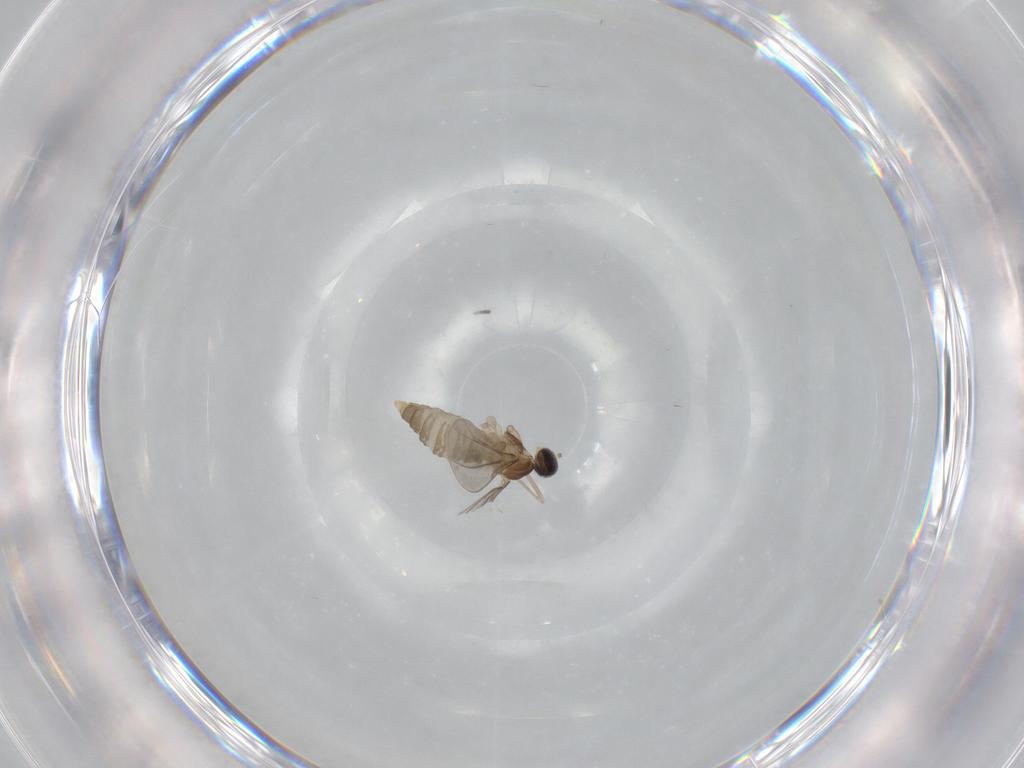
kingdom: Animalia
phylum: Arthropoda
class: Insecta
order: Diptera
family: Cecidomyiidae
